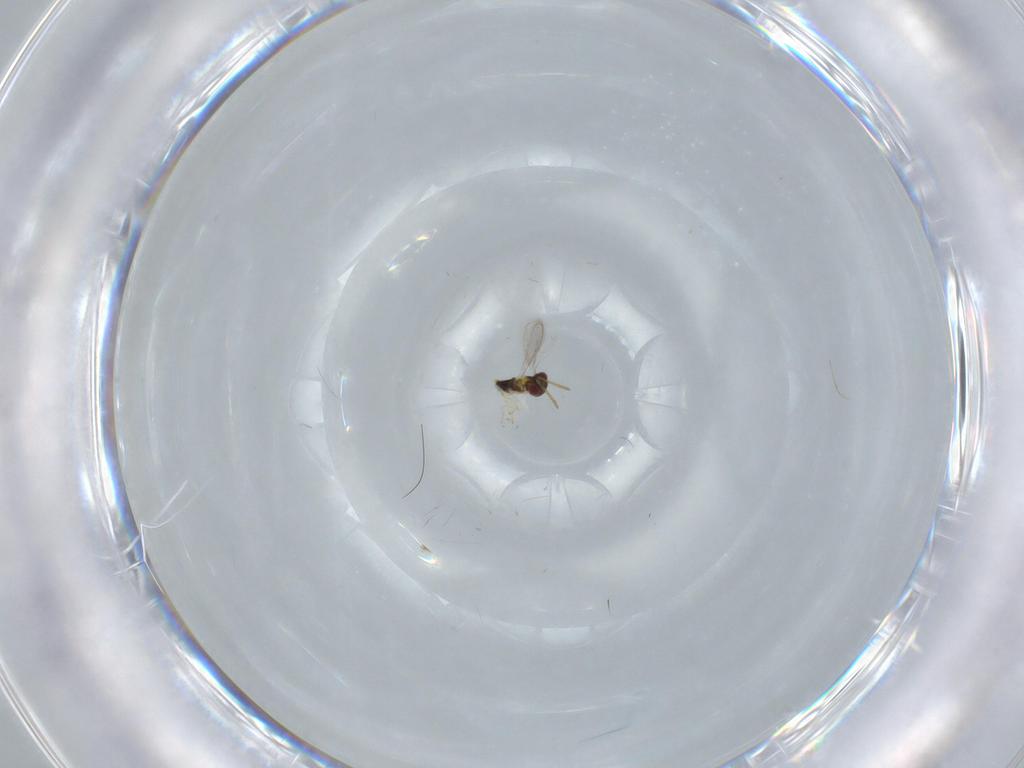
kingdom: Animalia
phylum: Arthropoda
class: Insecta
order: Hymenoptera
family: Aphelinidae
